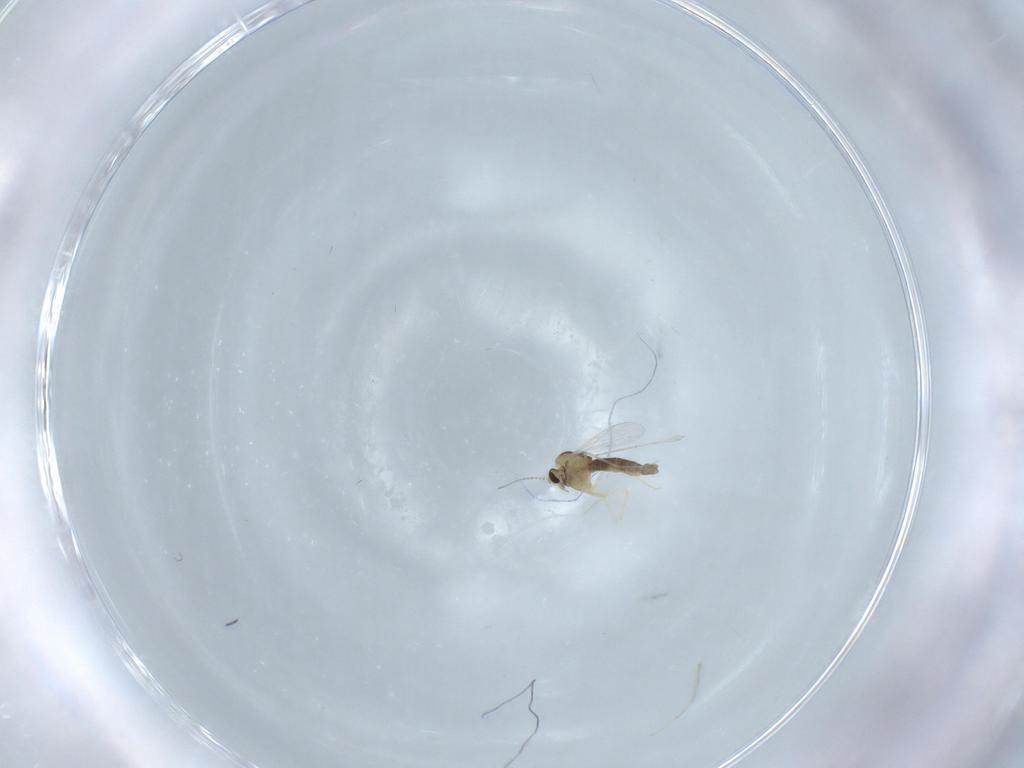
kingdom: Animalia
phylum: Arthropoda
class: Insecta
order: Diptera
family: Chironomidae
